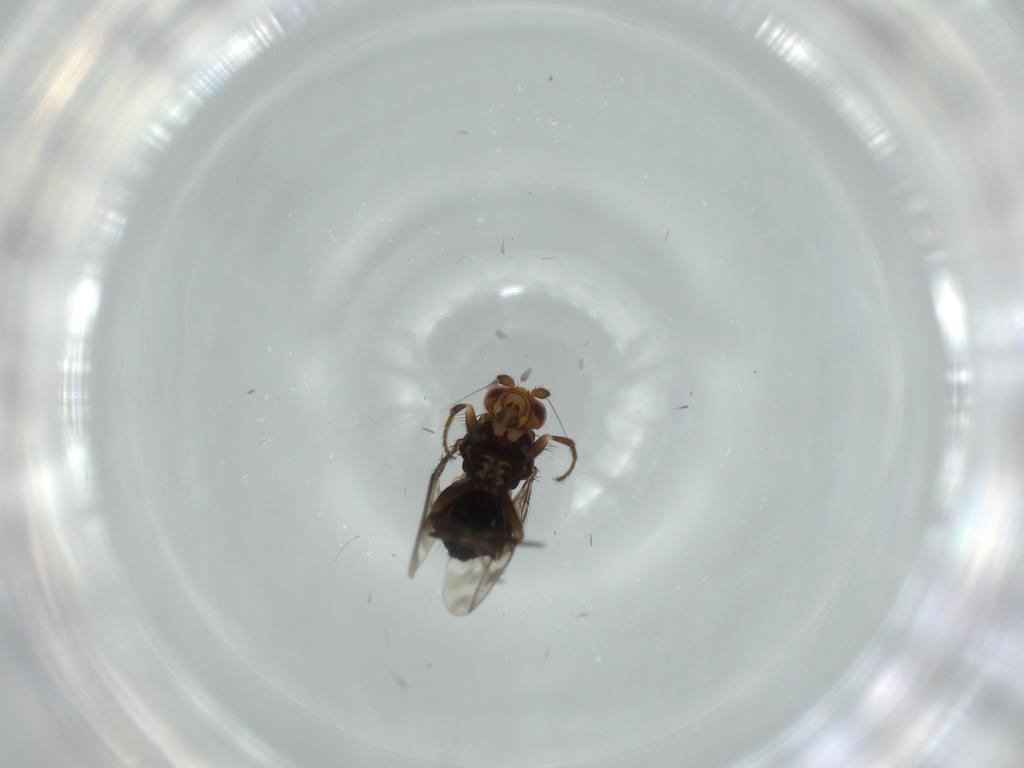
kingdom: Animalia
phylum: Arthropoda
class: Insecta
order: Diptera
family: Sphaeroceridae
